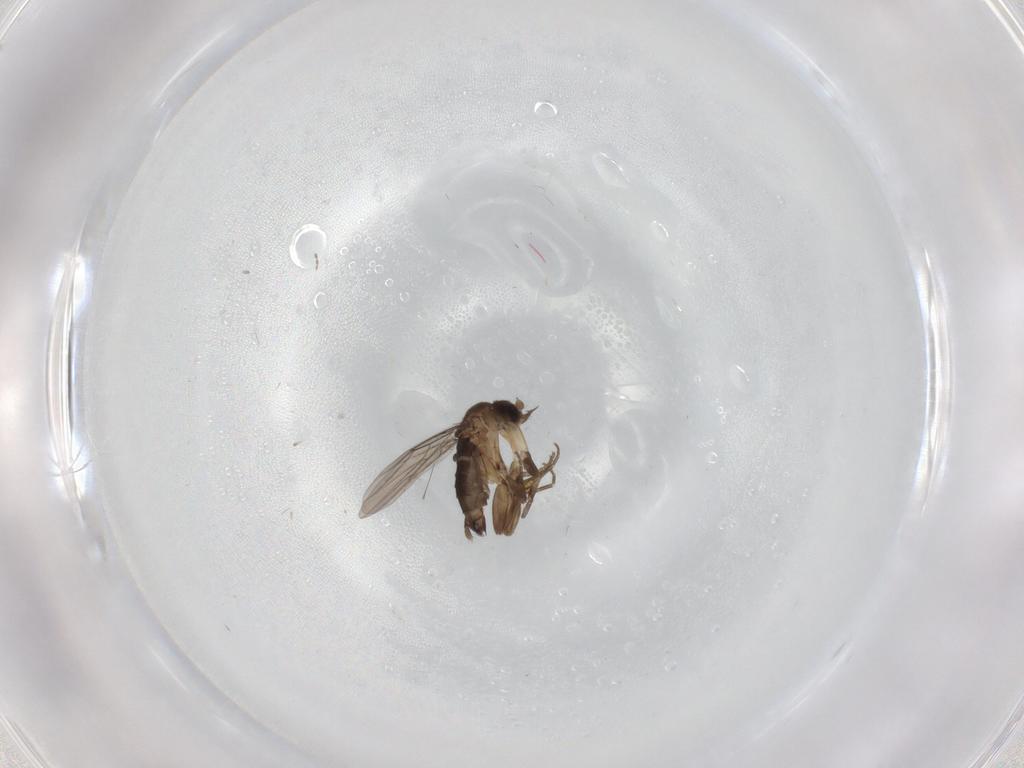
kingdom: Animalia
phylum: Arthropoda
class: Insecta
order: Diptera
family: Phoridae
